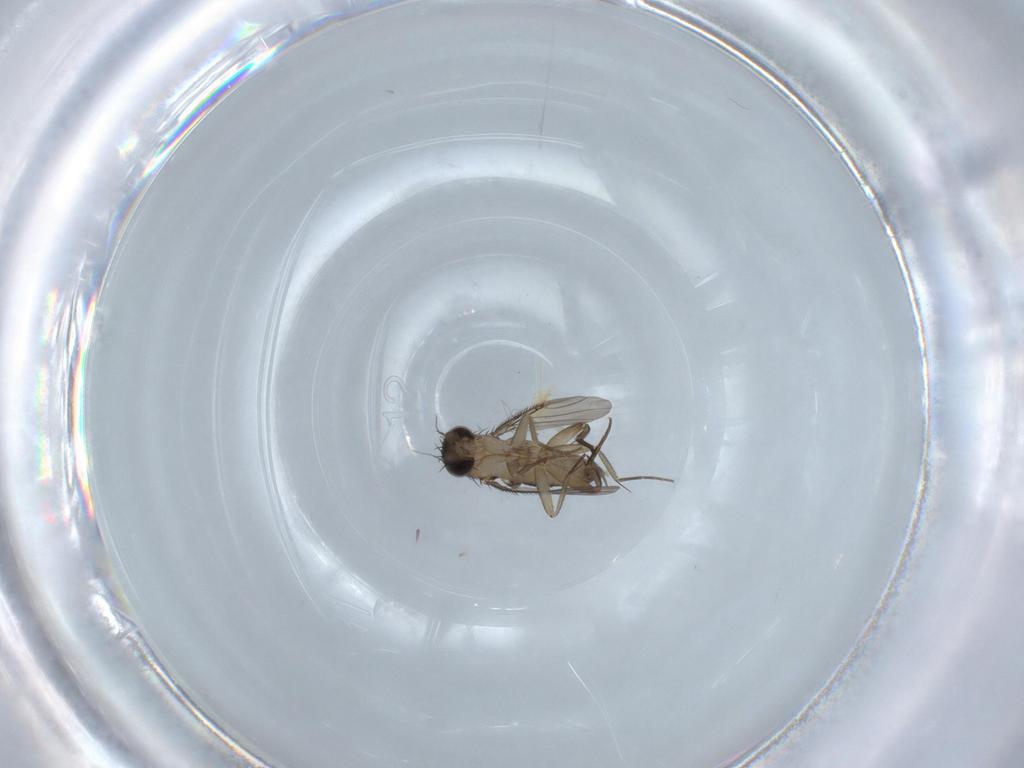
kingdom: Animalia
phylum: Arthropoda
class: Insecta
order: Diptera
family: Phoridae
